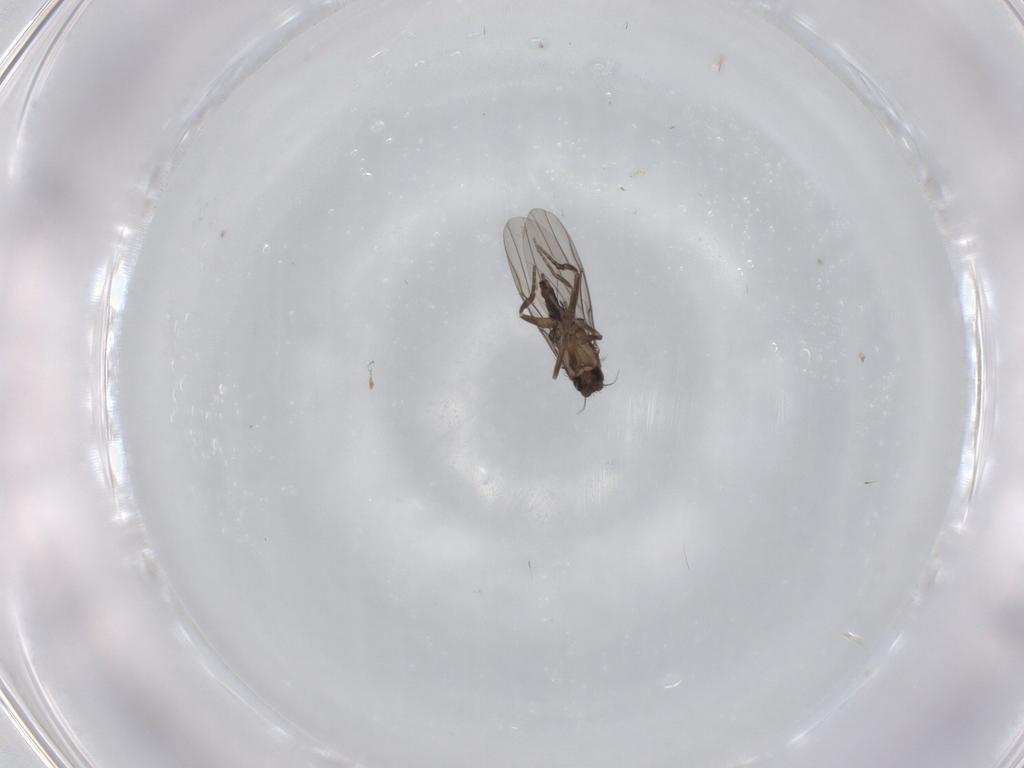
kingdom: Animalia
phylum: Arthropoda
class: Insecta
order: Diptera
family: Phoridae
